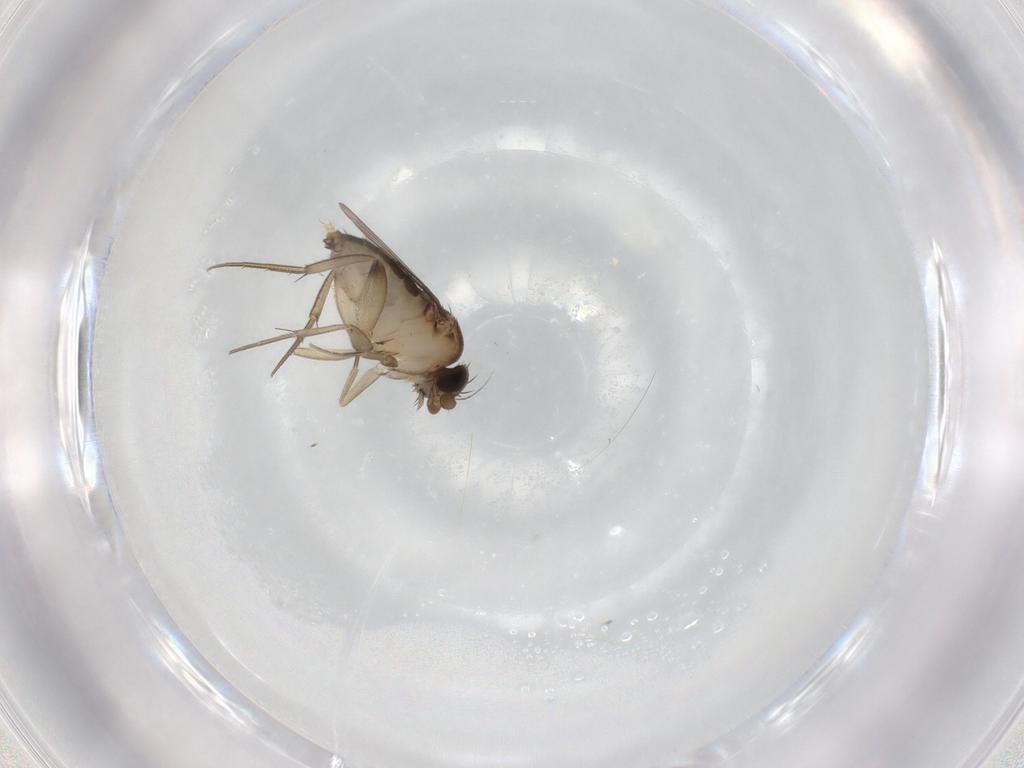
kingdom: Animalia
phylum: Arthropoda
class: Insecta
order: Diptera
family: Phoridae
